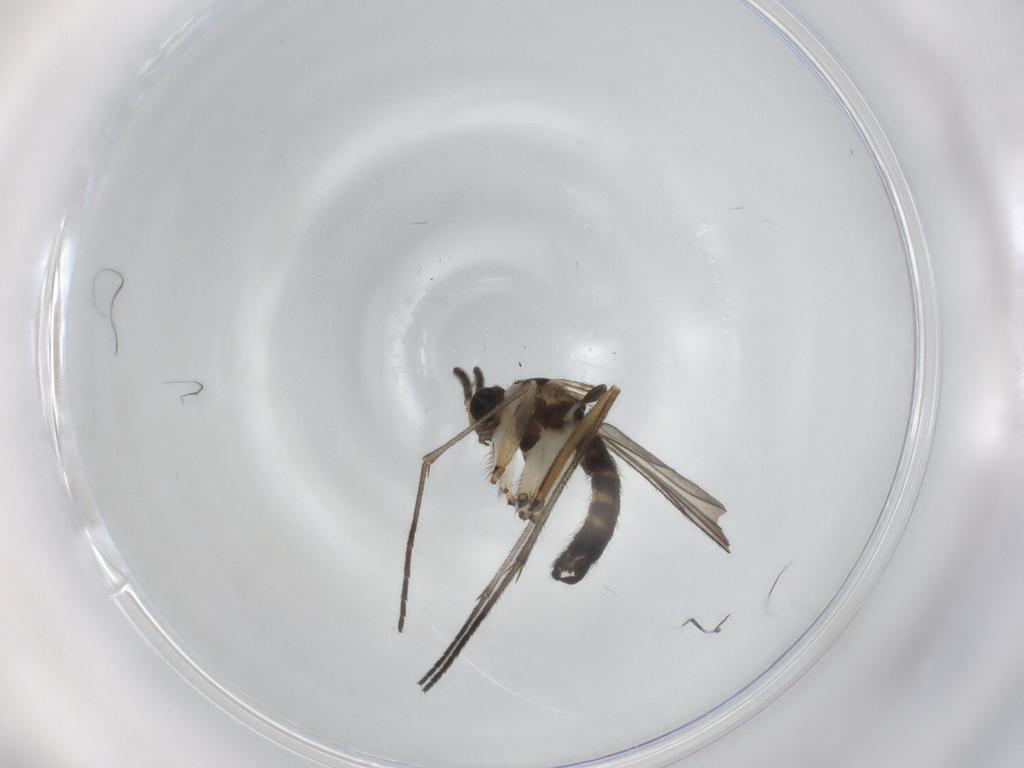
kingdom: Animalia
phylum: Arthropoda
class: Insecta
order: Diptera
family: Sciaridae
